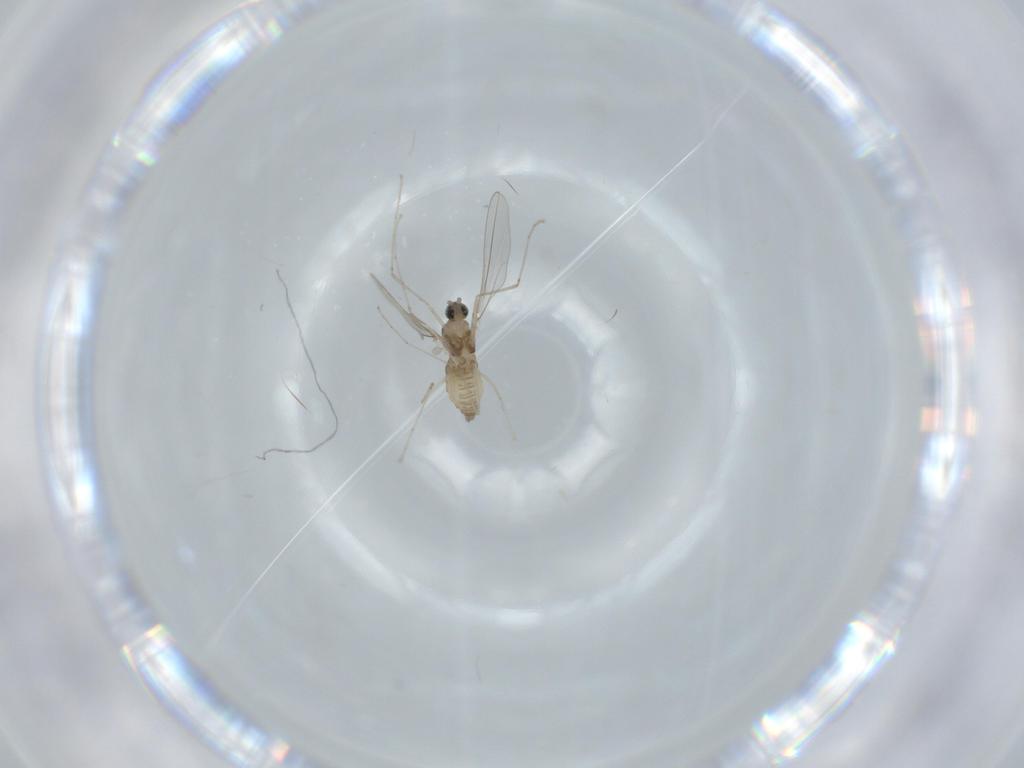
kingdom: Animalia
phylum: Arthropoda
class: Insecta
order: Diptera
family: Cecidomyiidae
